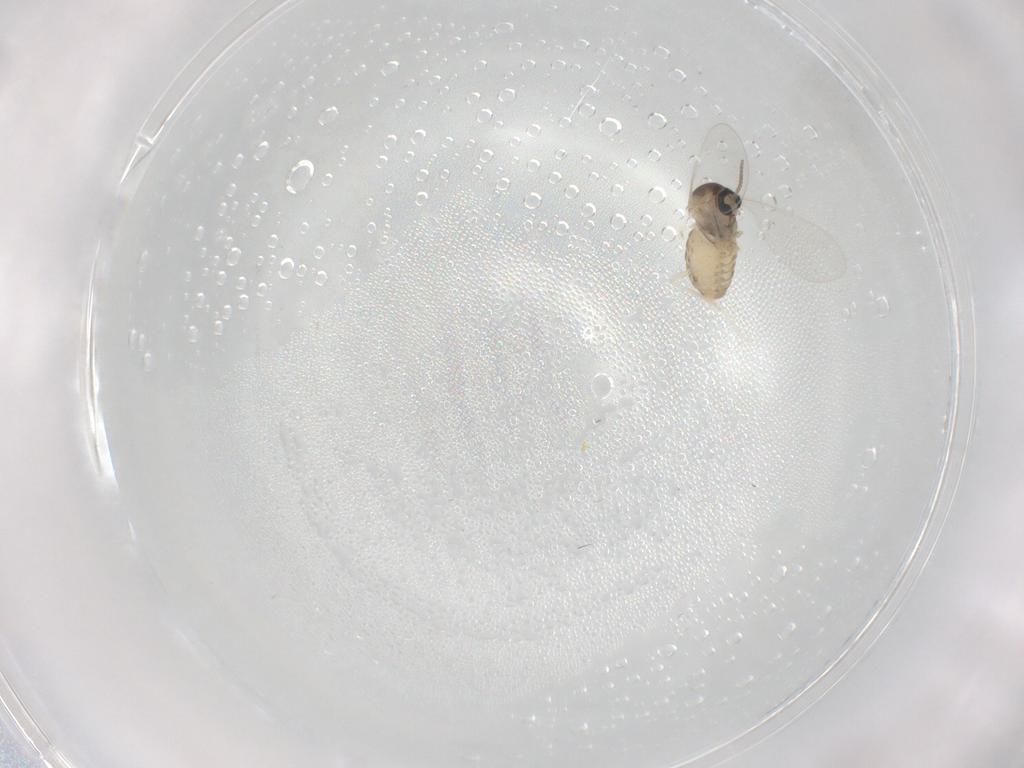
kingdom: Animalia
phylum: Arthropoda
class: Insecta
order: Diptera
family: Cecidomyiidae
